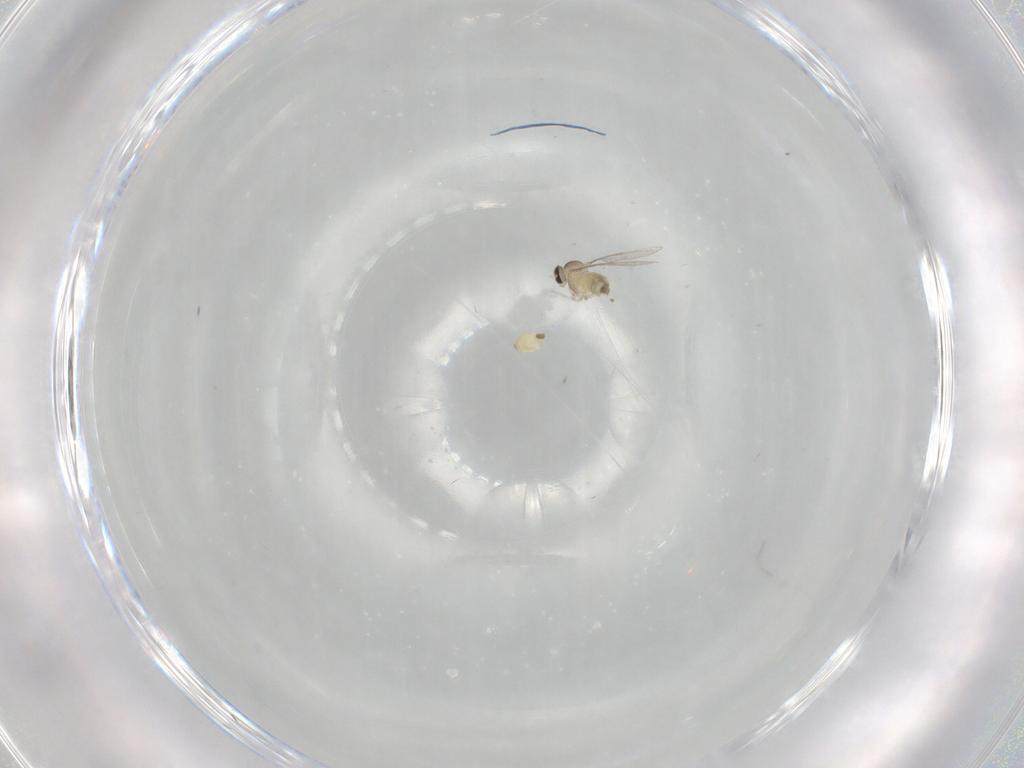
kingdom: Animalia
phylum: Arthropoda
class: Insecta
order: Diptera
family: Cecidomyiidae
